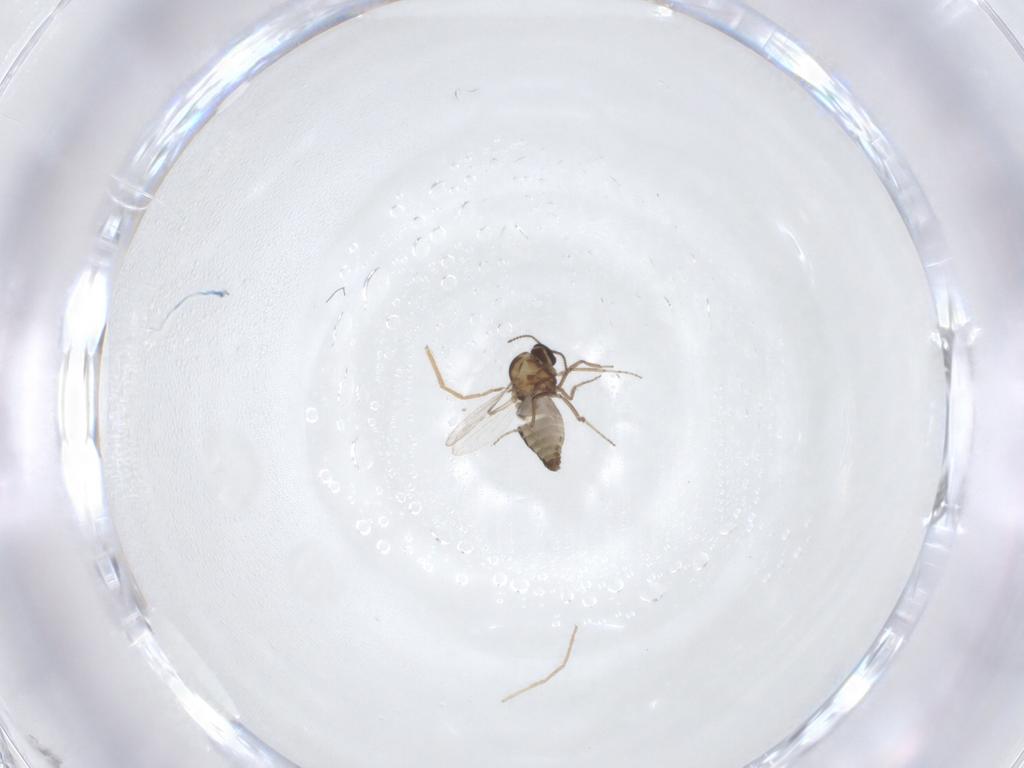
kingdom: Animalia
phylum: Arthropoda
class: Insecta
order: Diptera
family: Ceratopogonidae
